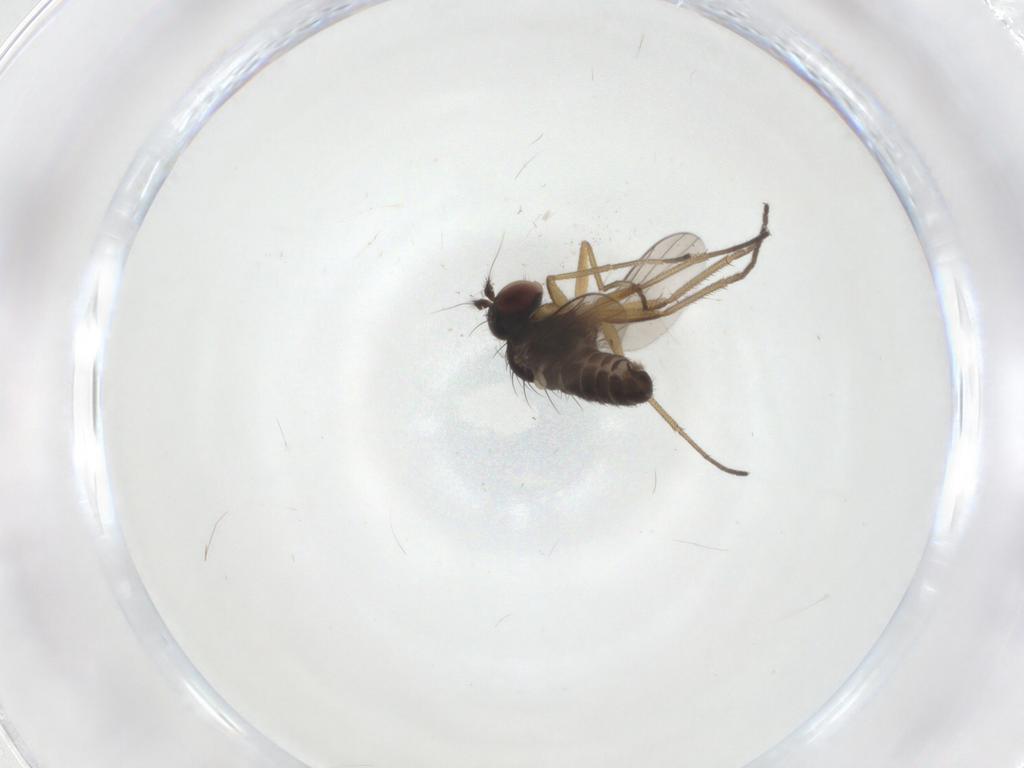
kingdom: Animalia
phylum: Arthropoda
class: Insecta
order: Diptera
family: Dolichopodidae
